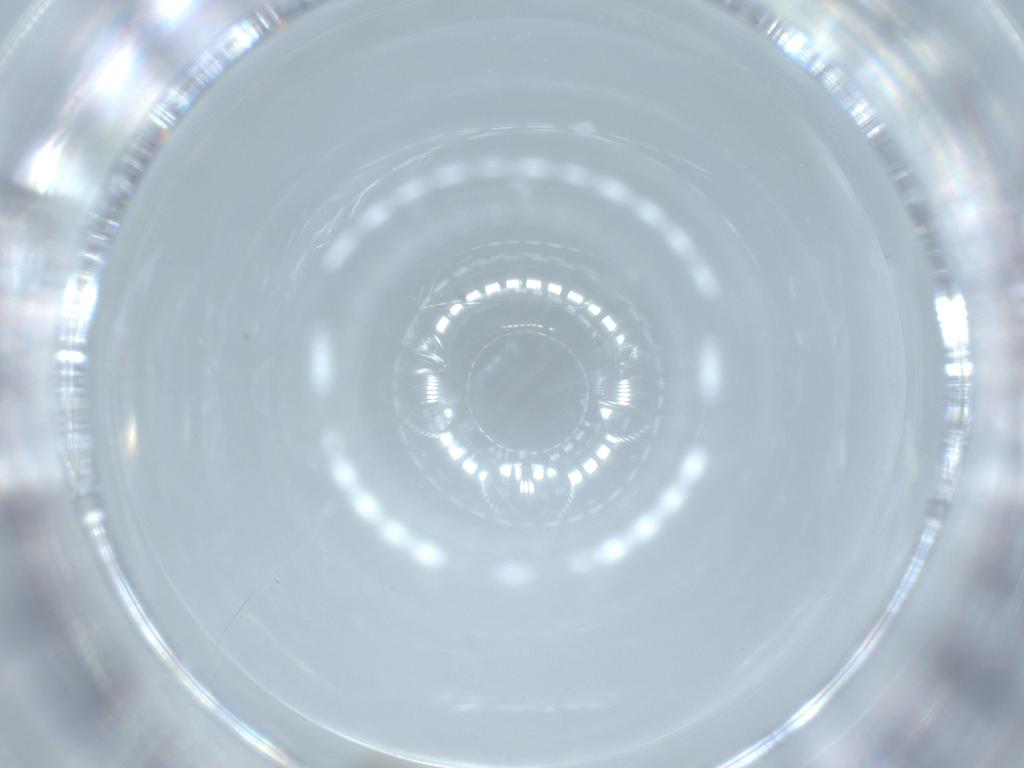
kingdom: Animalia
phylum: Arthropoda
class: Insecta
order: Diptera
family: Cecidomyiidae
